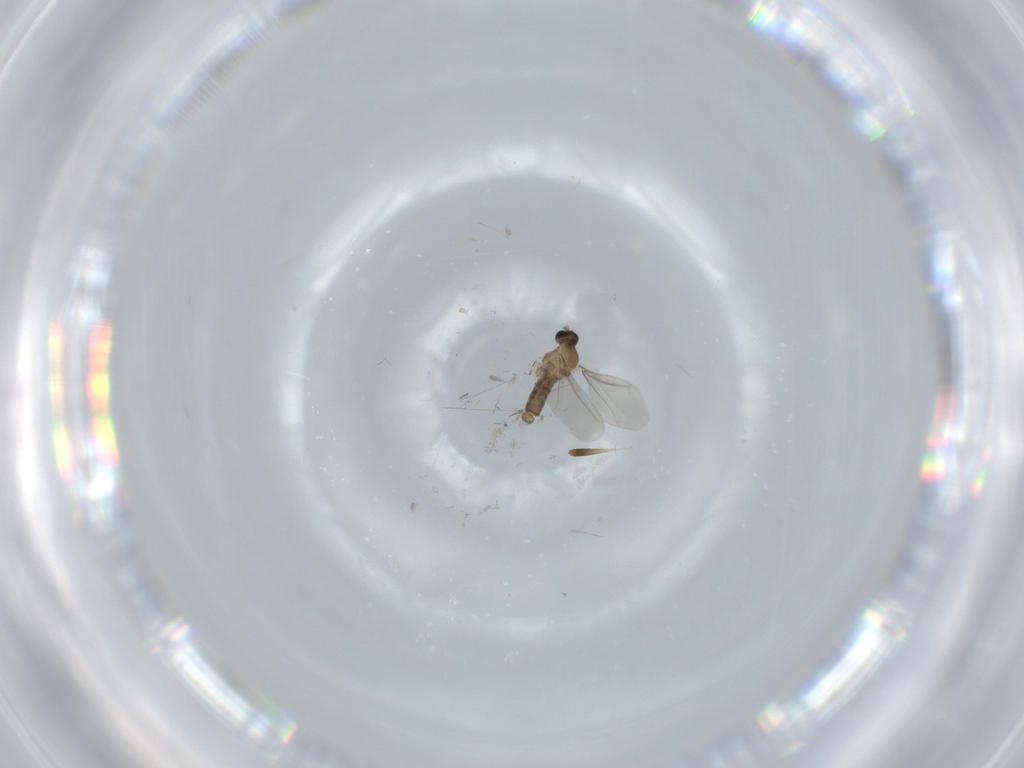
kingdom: Animalia
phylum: Arthropoda
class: Insecta
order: Diptera
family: Cecidomyiidae
